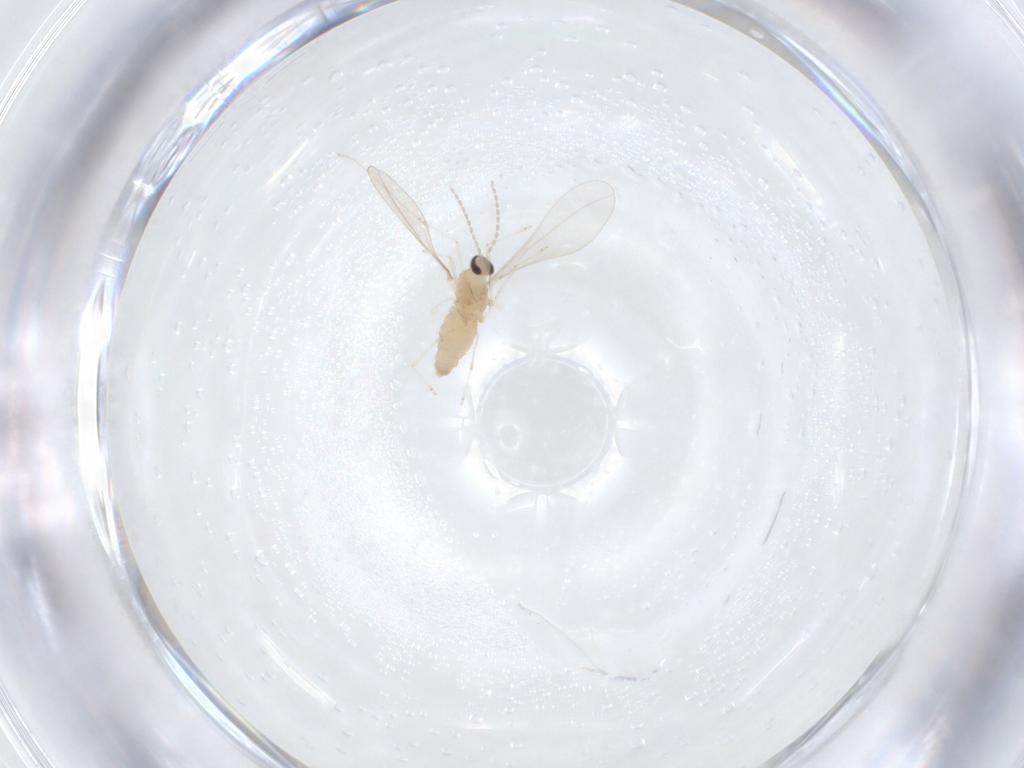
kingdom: Animalia
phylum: Arthropoda
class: Insecta
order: Diptera
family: Cecidomyiidae
